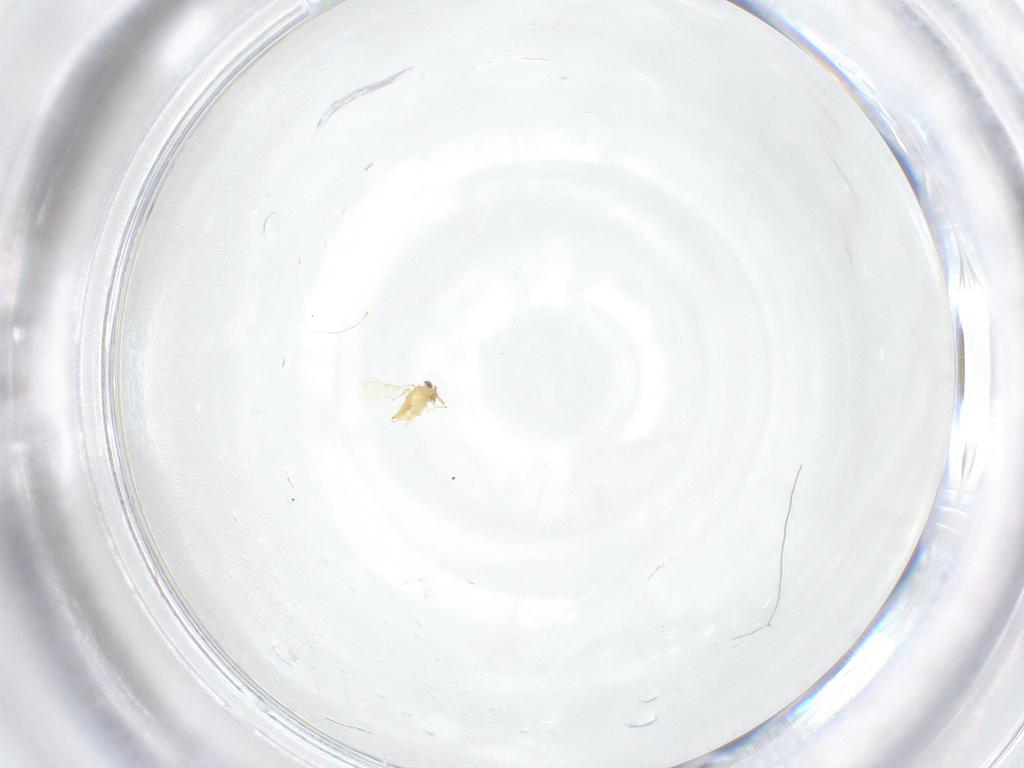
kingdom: Animalia
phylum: Arthropoda
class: Insecta
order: Hymenoptera
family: Aphelinidae
